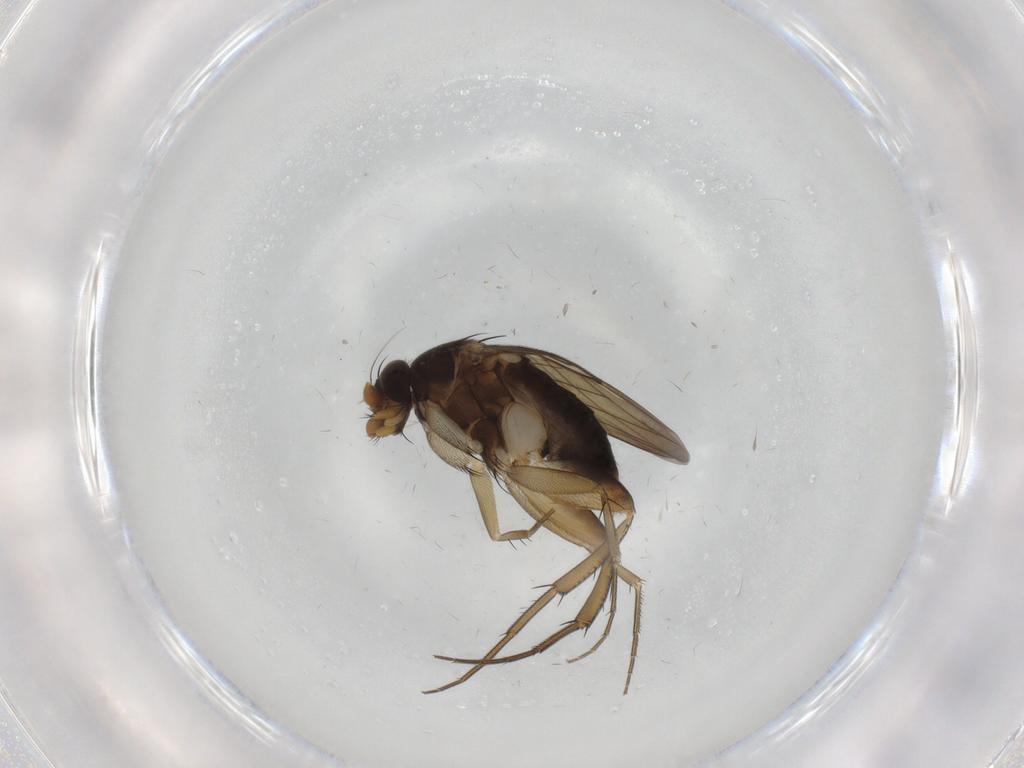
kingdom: Animalia
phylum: Arthropoda
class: Insecta
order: Diptera
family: Phoridae
